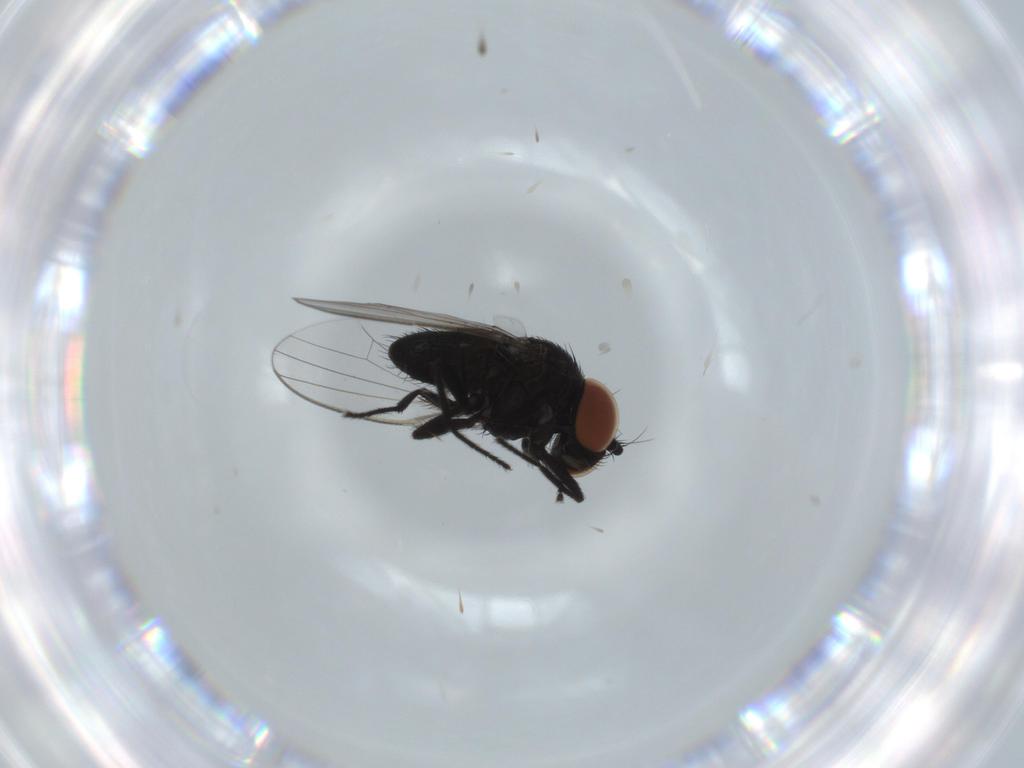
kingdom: Animalia
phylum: Arthropoda
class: Insecta
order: Diptera
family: Milichiidae
